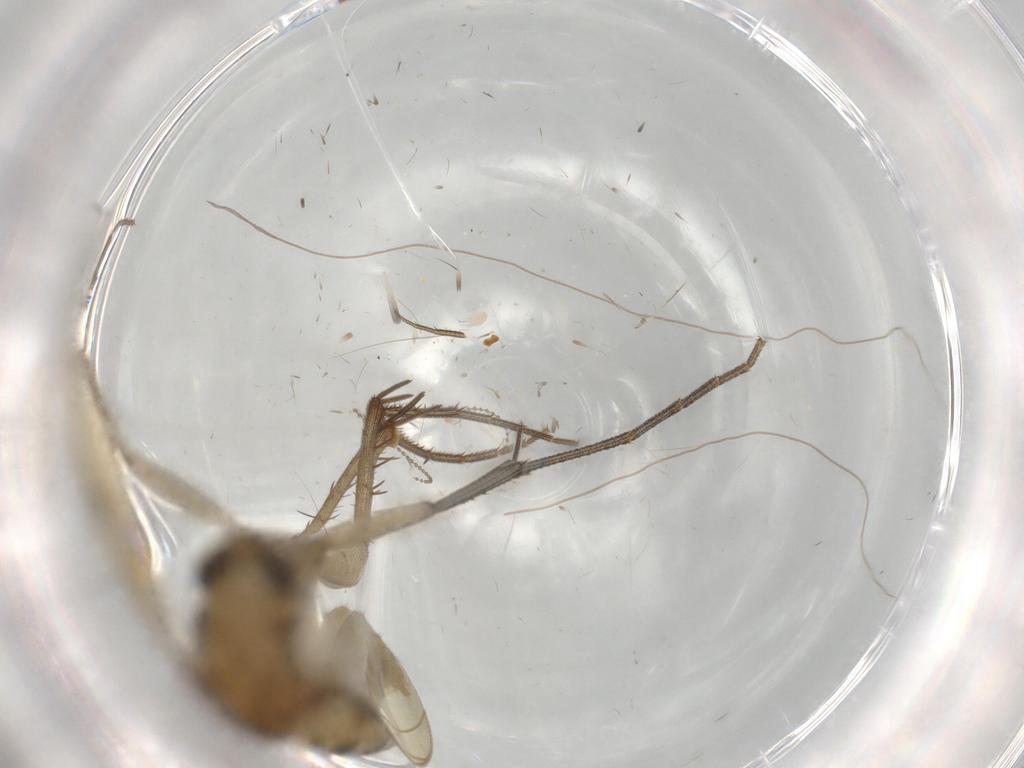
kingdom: Animalia
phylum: Arthropoda
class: Insecta
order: Diptera
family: Mycetophilidae
